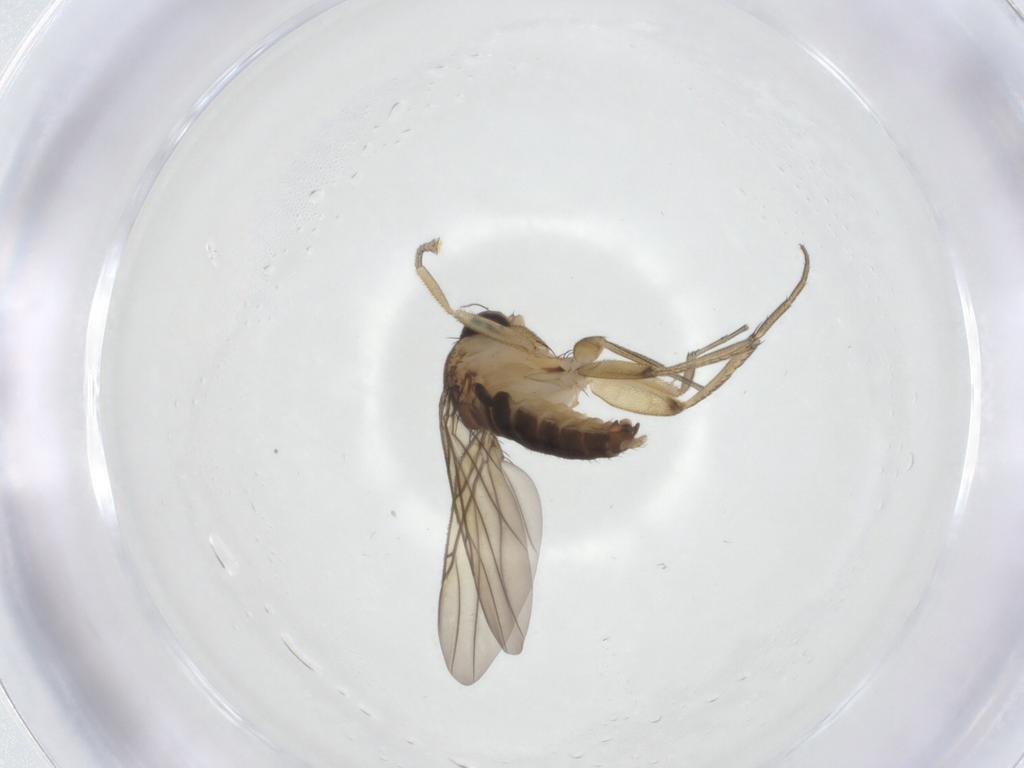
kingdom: Animalia
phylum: Arthropoda
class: Insecta
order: Diptera
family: Phoridae
